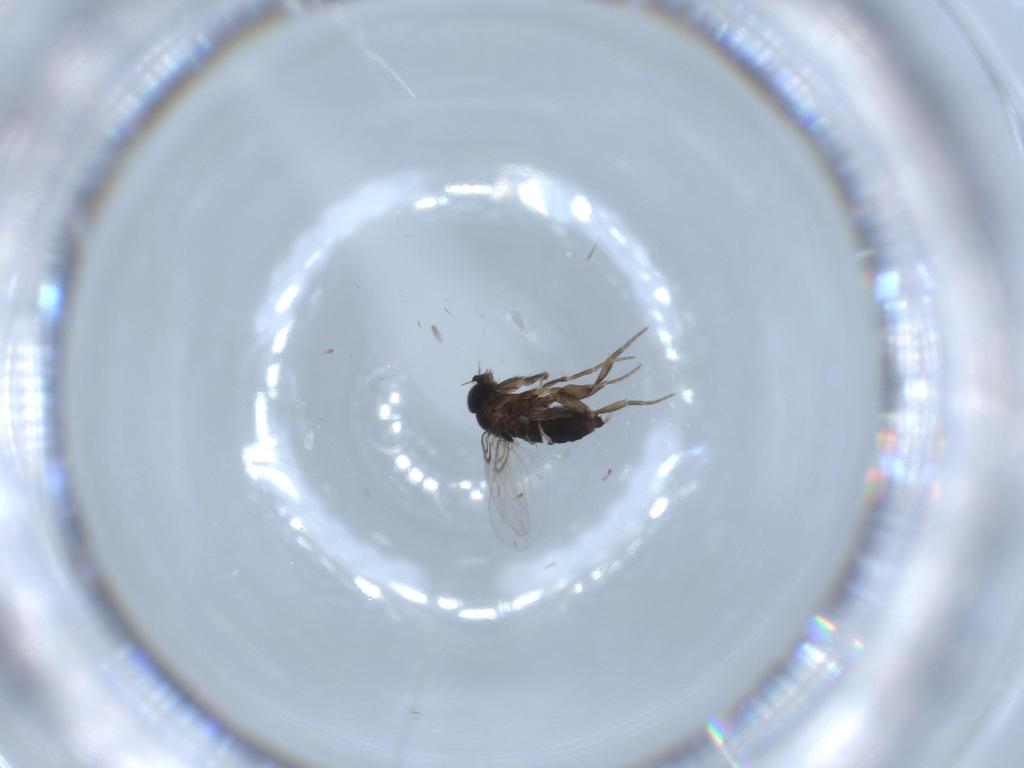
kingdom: Animalia
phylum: Arthropoda
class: Insecta
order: Diptera
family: Phoridae
